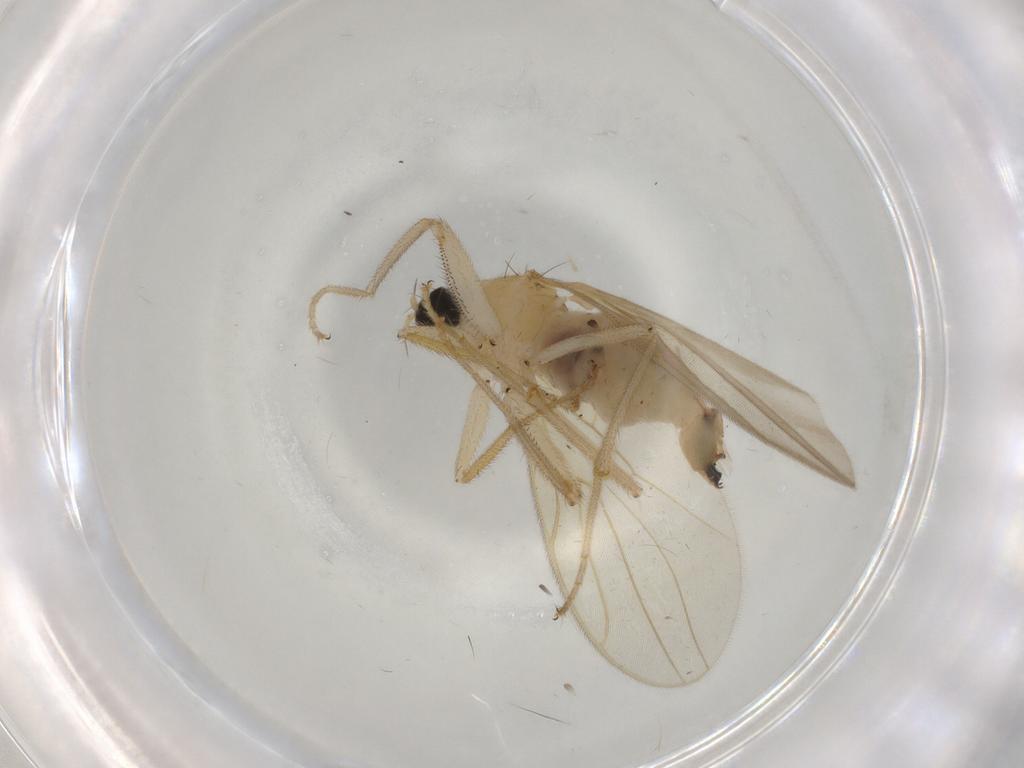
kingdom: Animalia
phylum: Arthropoda
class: Insecta
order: Diptera
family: Hybotidae
